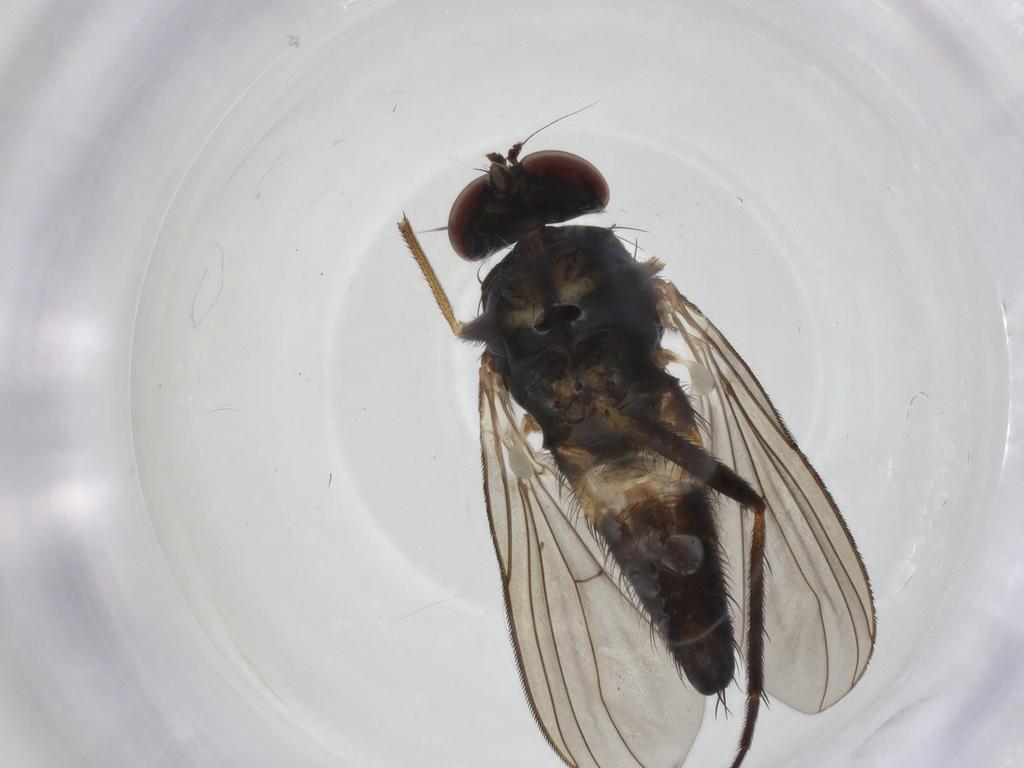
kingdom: Animalia
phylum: Arthropoda
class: Insecta
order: Diptera
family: Dolichopodidae
